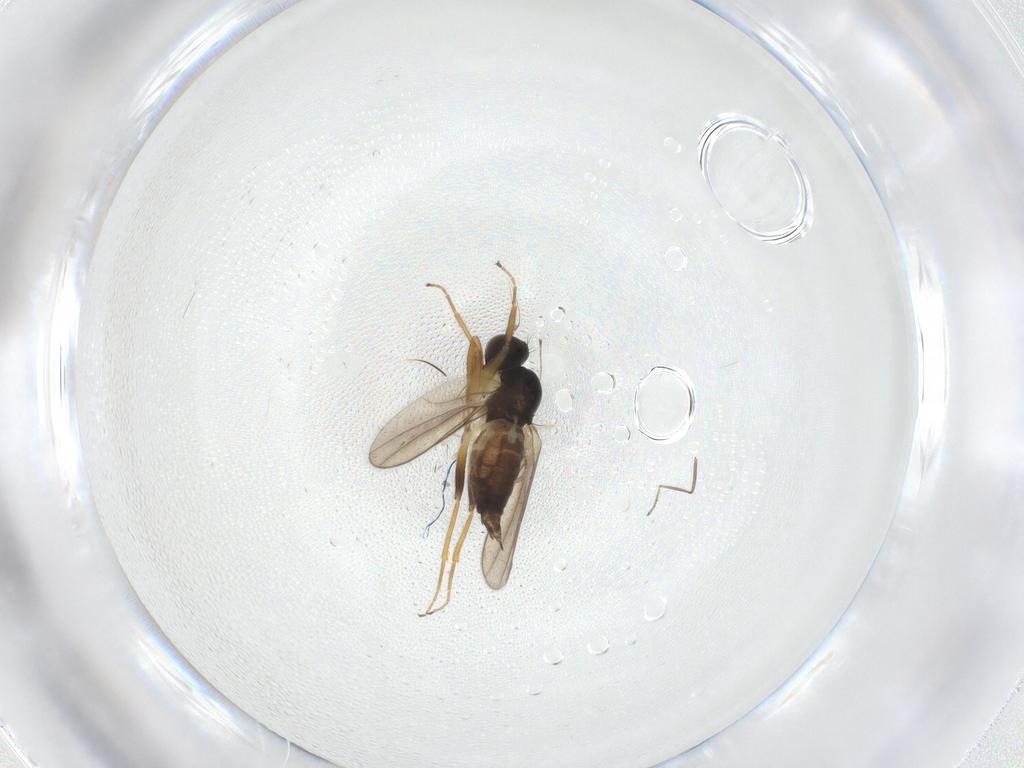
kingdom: Animalia
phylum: Arthropoda
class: Insecta
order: Diptera
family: Hybotidae
